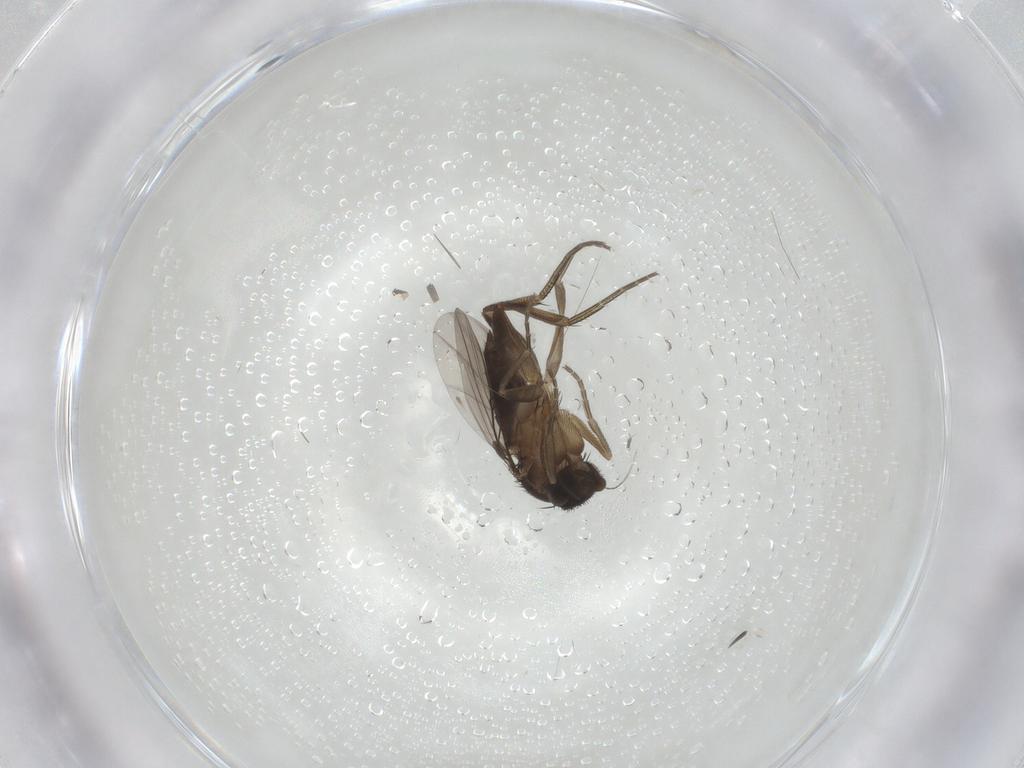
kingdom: Animalia
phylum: Arthropoda
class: Insecta
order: Diptera
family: Phoridae
